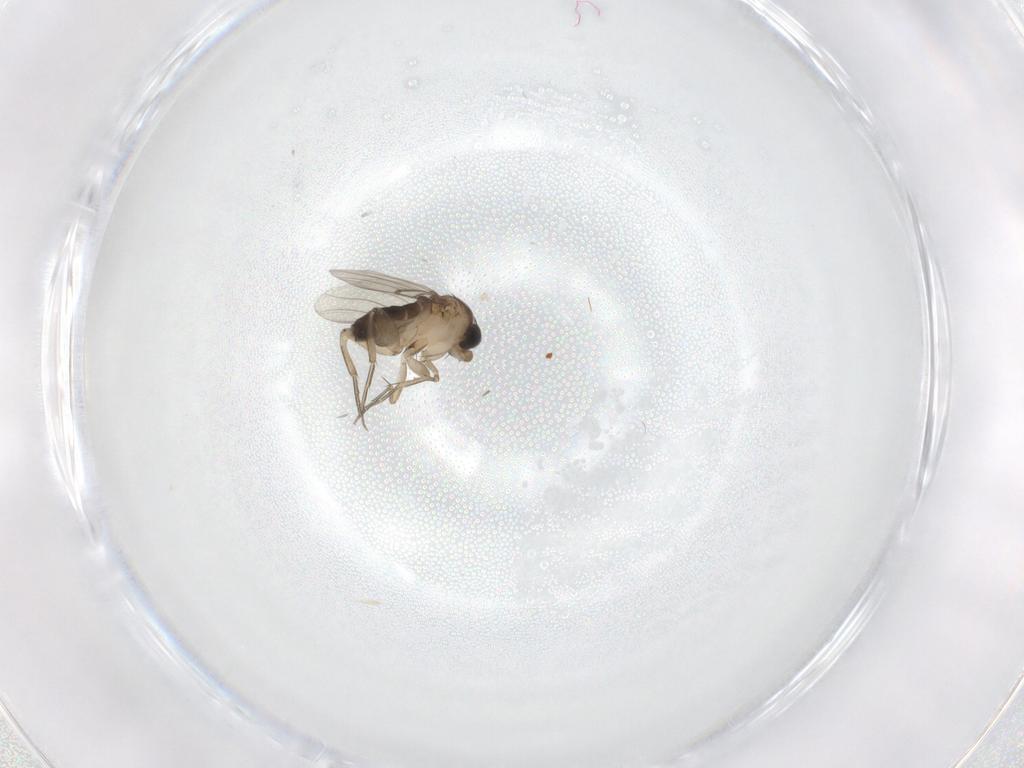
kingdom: Animalia
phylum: Arthropoda
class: Insecta
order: Diptera
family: Phoridae
